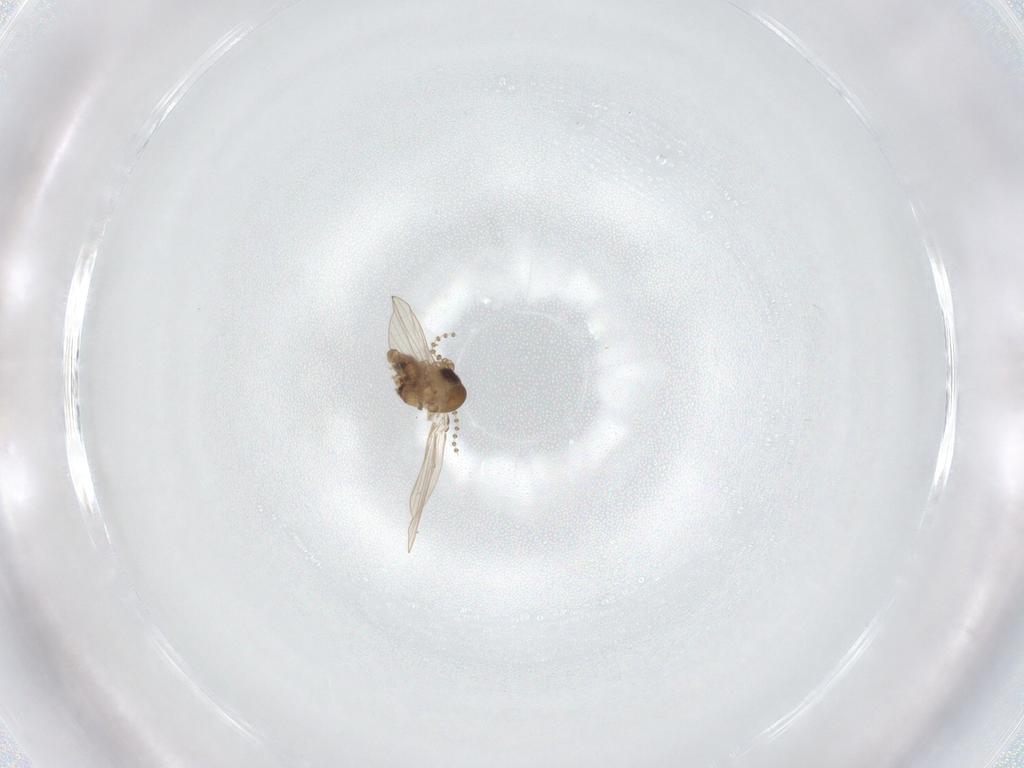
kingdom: Animalia
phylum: Arthropoda
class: Insecta
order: Diptera
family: Psychodidae
